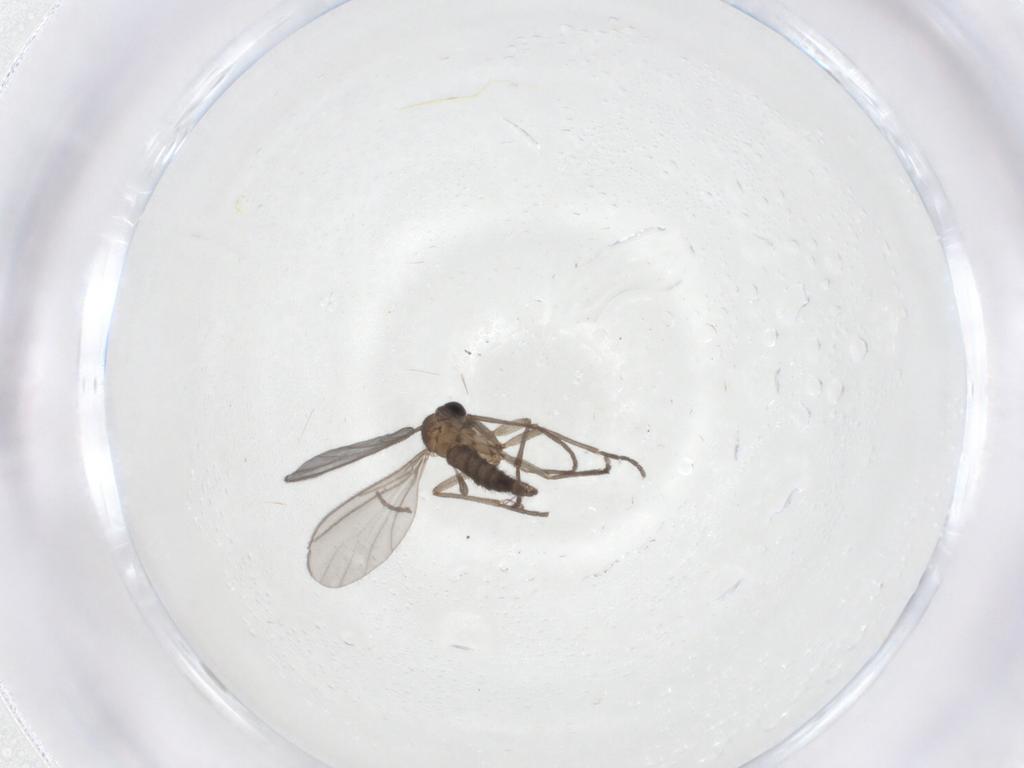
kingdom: Animalia
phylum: Arthropoda
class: Insecta
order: Diptera
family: Sciaridae
